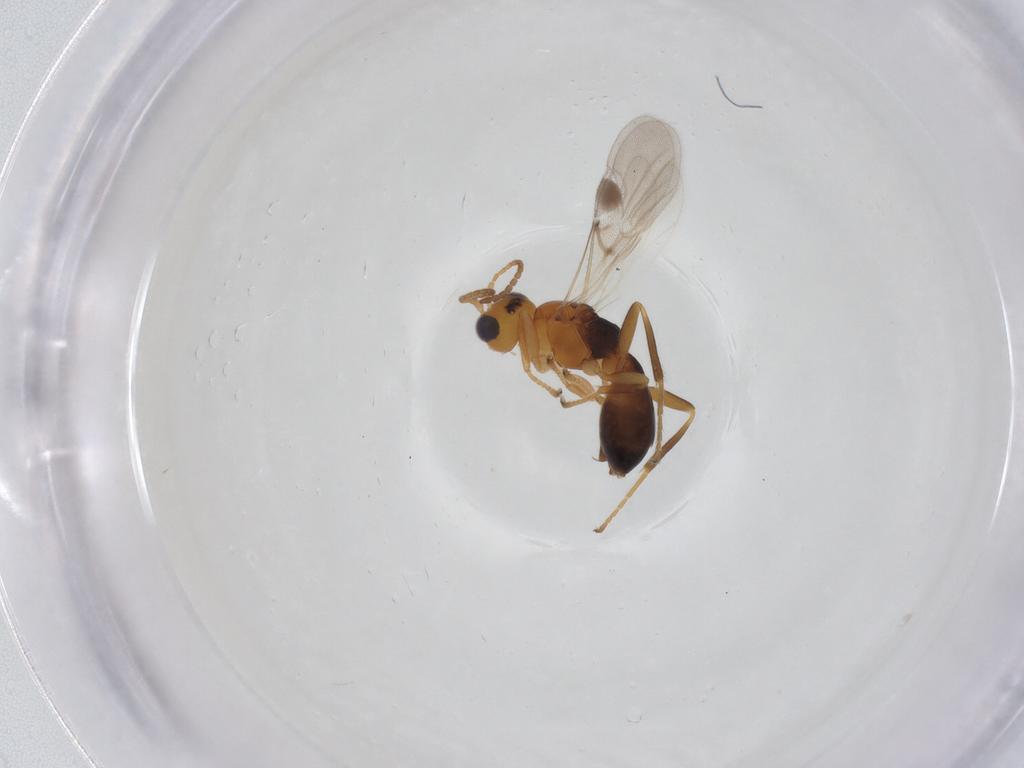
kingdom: Animalia
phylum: Arthropoda
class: Insecta
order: Hymenoptera
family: Braconidae
